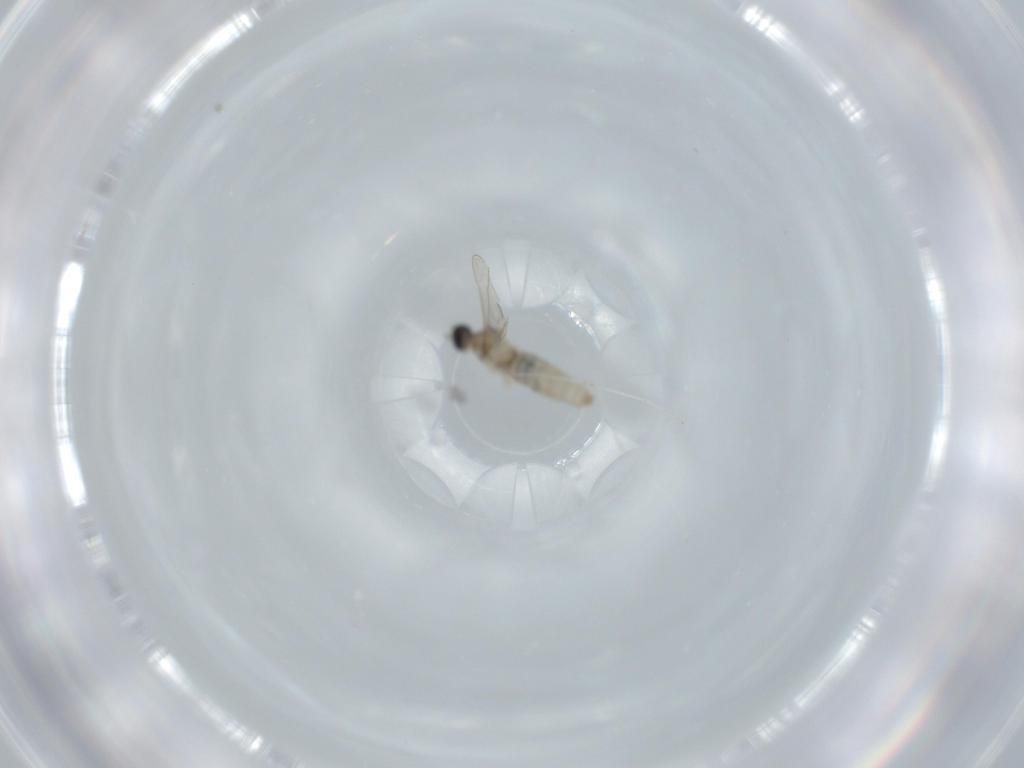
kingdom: Animalia
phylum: Arthropoda
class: Insecta
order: Diptera
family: Cecidomyiidae
